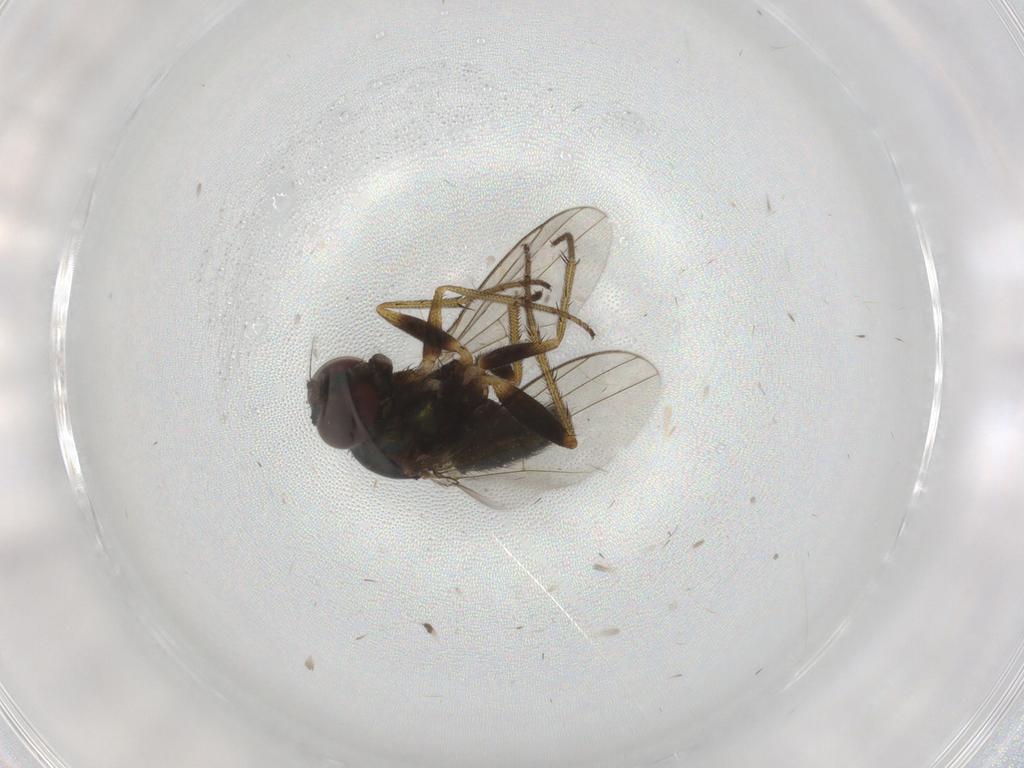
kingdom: Animalia
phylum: Arthropoda
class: Insecta
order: Diptera
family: Dolichopodidae
